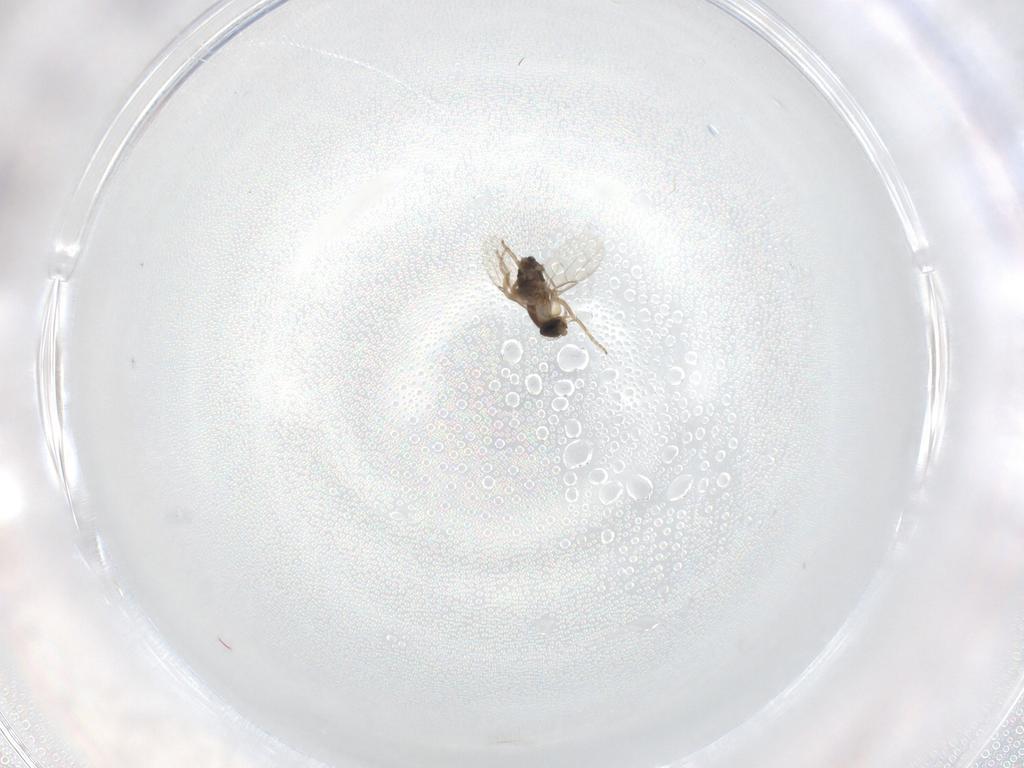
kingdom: Animalia
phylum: Arthropoda
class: Insecta
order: Diptera
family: Phoridae
